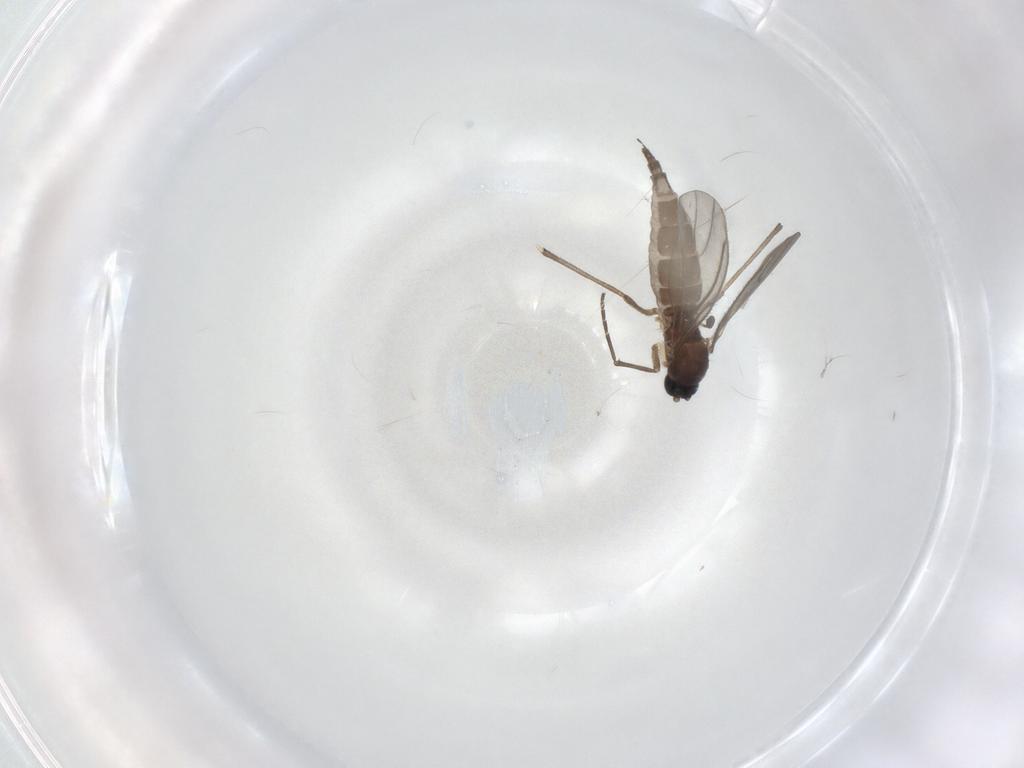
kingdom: Animalia
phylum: Arthropoda
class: Insecta
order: Diptera
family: Sciaridae
